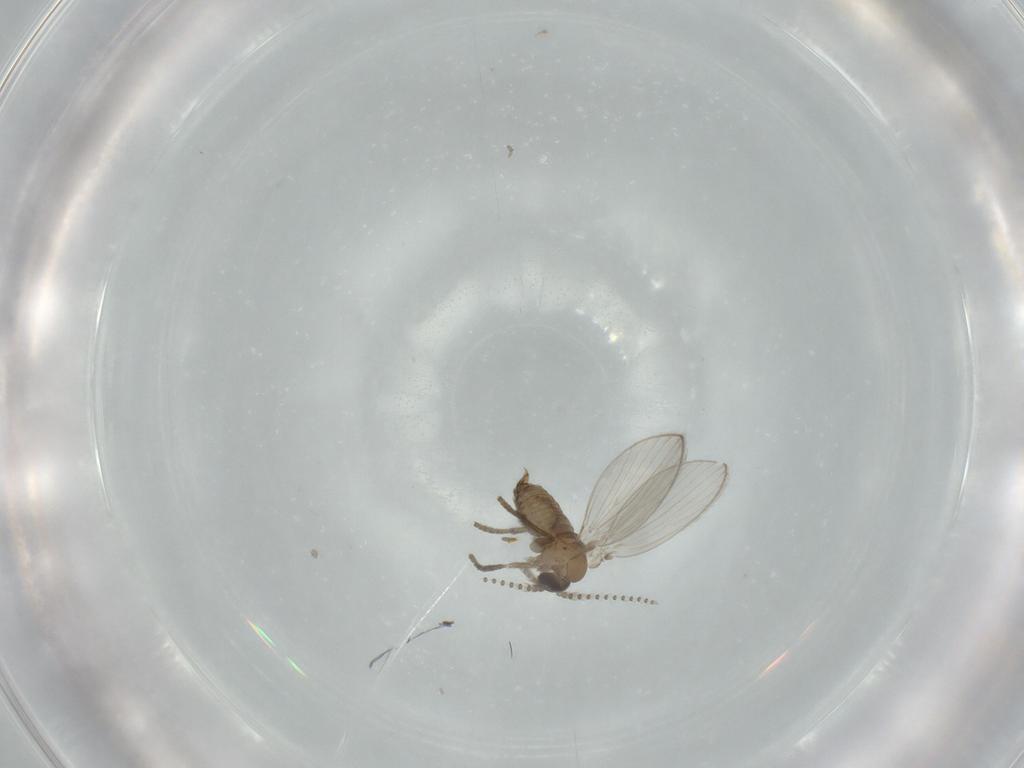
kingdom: Animalia
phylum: Arthropoda
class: Insecta
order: Diptera
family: Psychodidae
